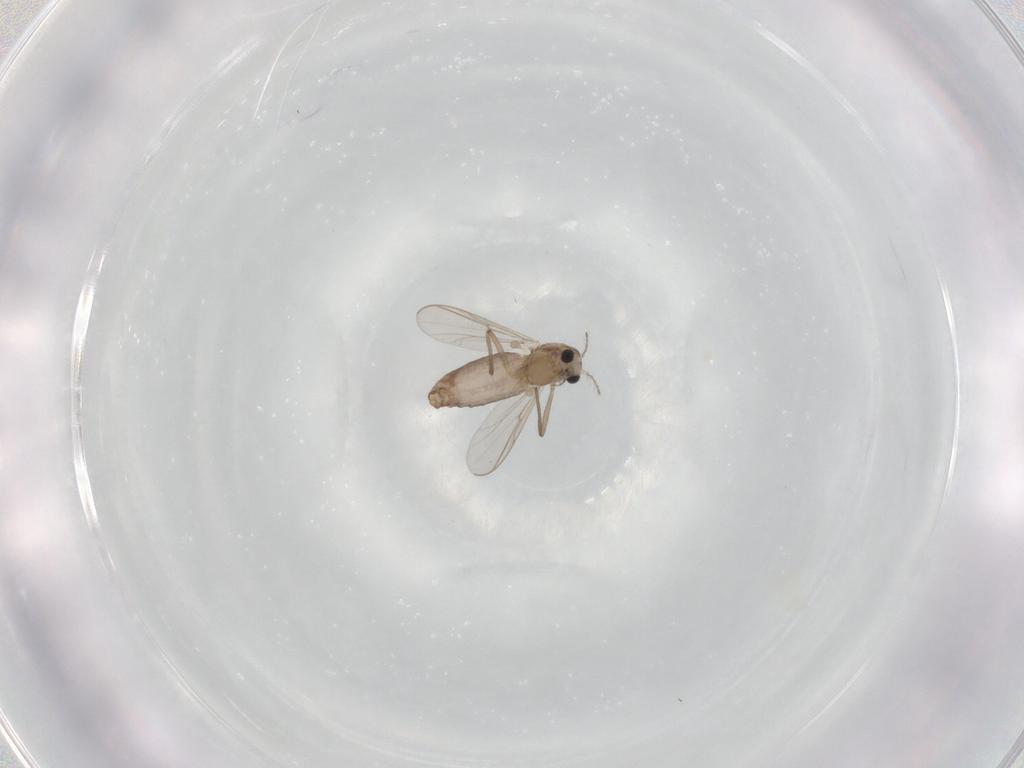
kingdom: Animalia
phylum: Arthropoda
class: Insecta
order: Diptera
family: Chironomidae
